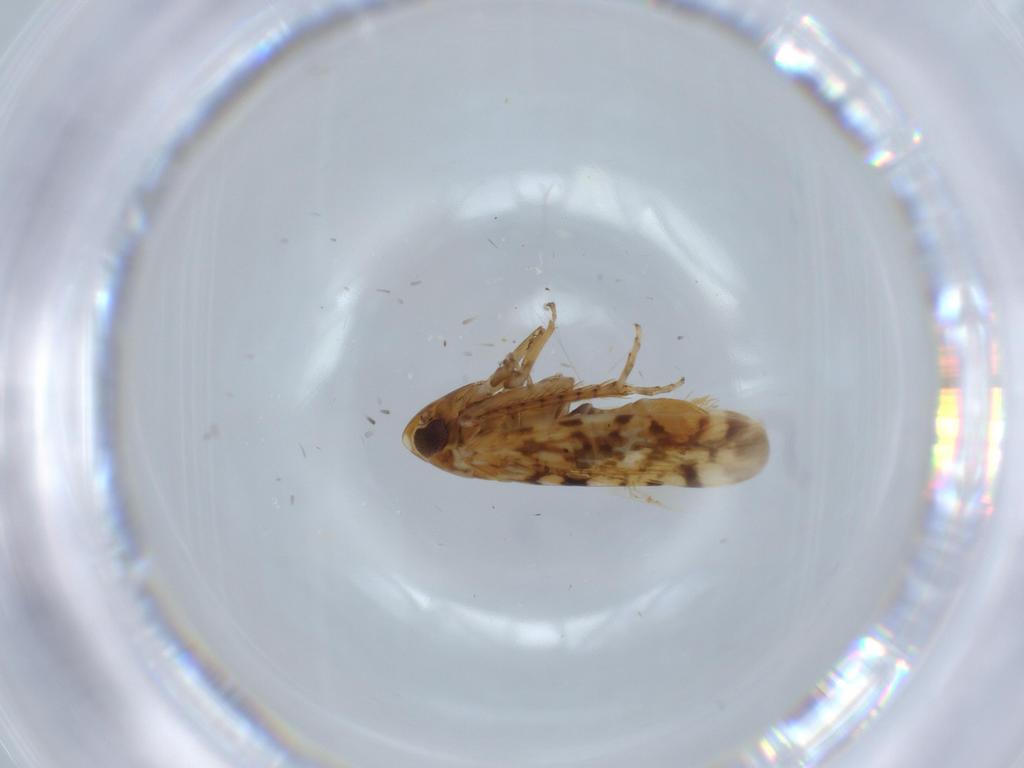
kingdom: Animalia
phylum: Arthropoda
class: Insecta
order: Hemiptera
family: Cicadellidae
